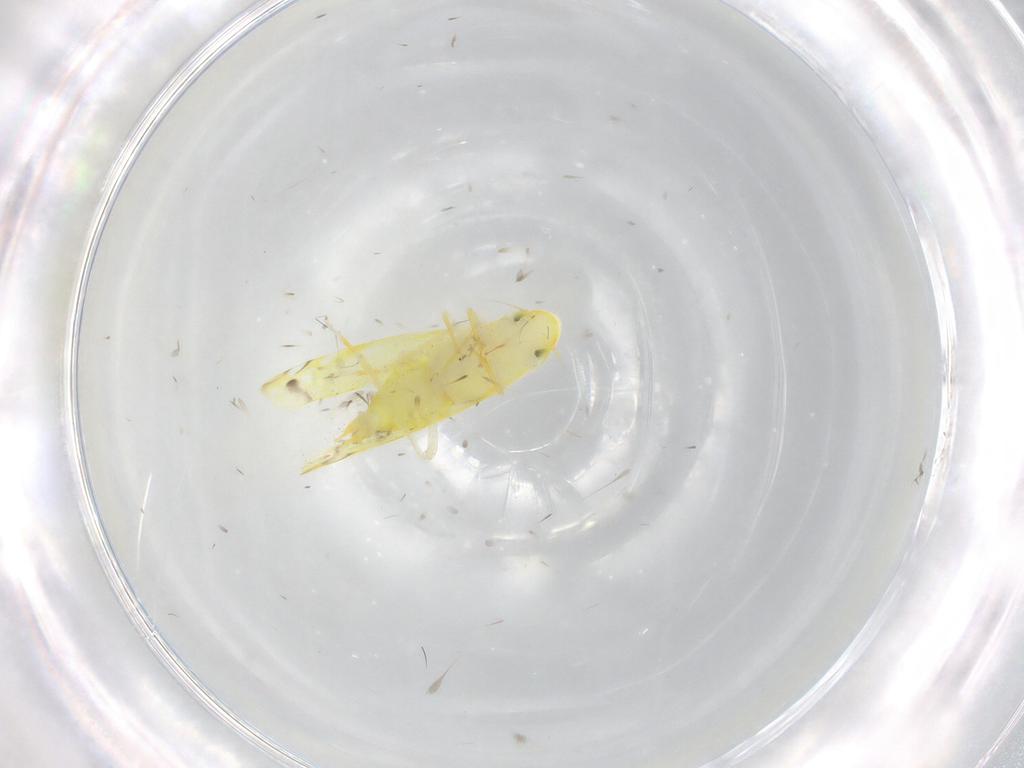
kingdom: Animalia
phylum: Arthropoda
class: Insecta
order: Hemiptera
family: Cicadellidae
